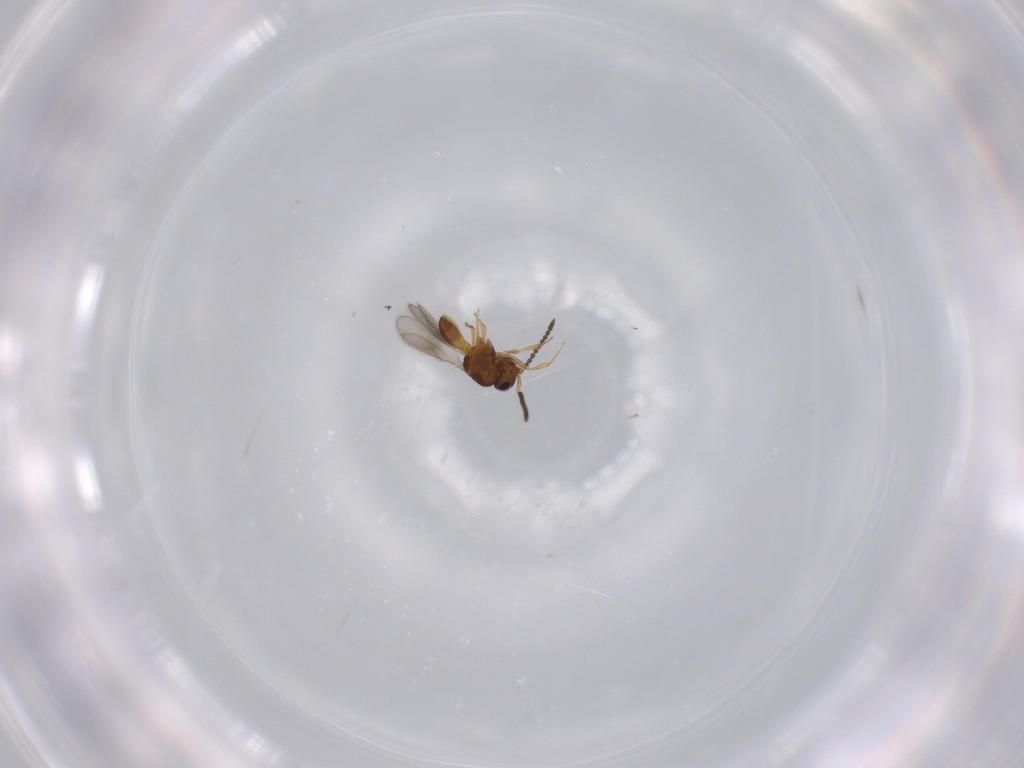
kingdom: Animalia
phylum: Arthropoda
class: Insecta
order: Hymenoptera
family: Scelionidae
